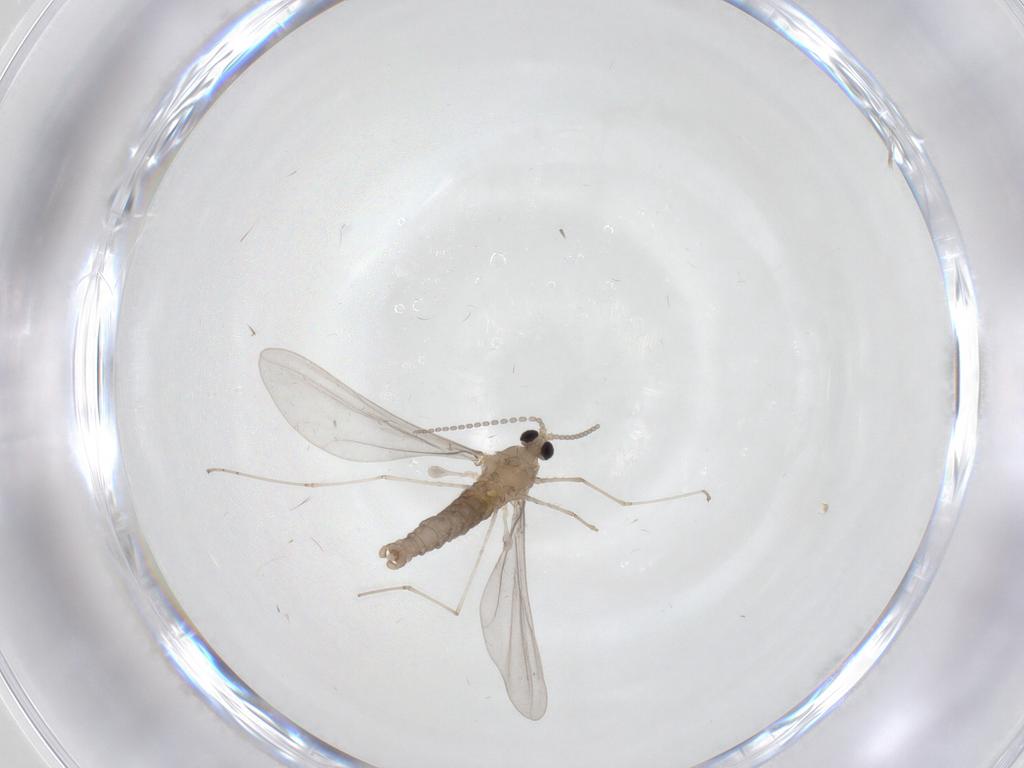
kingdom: Animalia
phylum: Arthropoda
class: Insecta
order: Diptera
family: Cecidomyiidae
